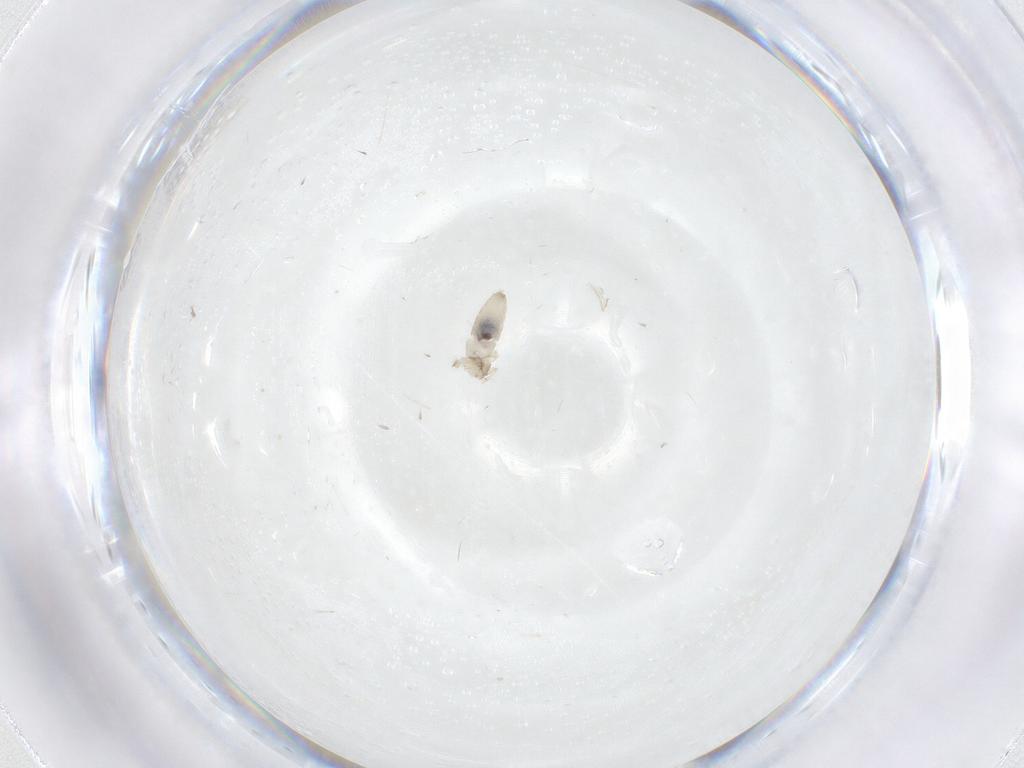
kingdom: Animalia
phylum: Arthropoda
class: Insecta
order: Diptera
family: Cecidomyiidae
